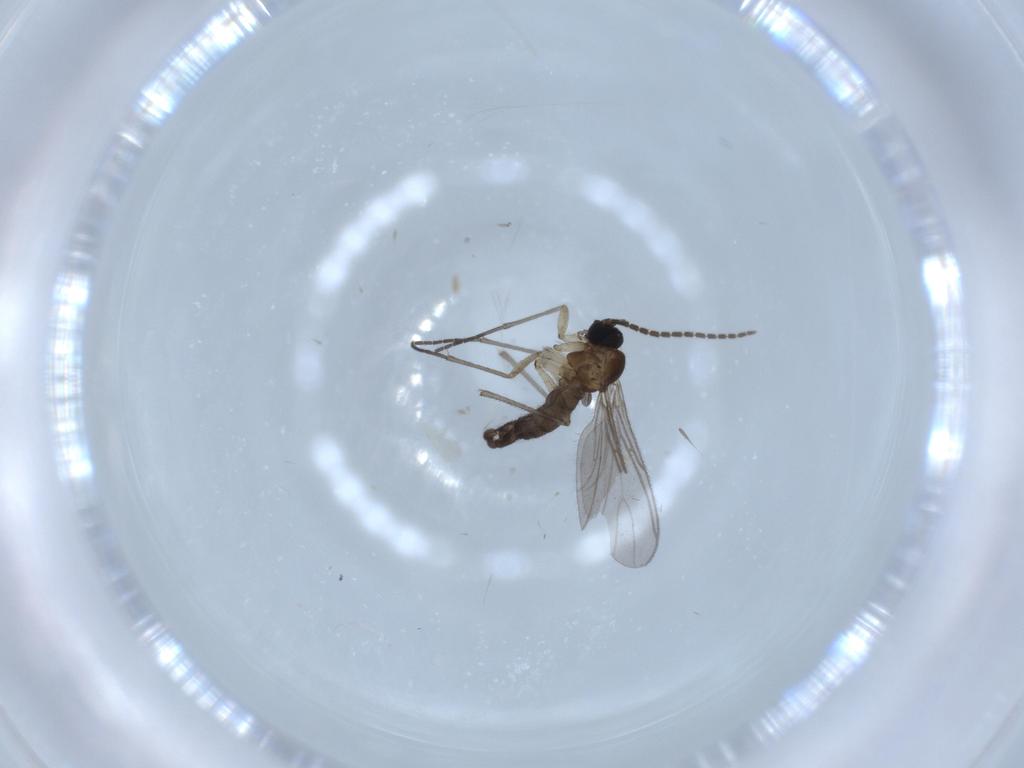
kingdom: Animalia
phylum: Arthropoda
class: Insecta
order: Diptera
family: Sciaridae
